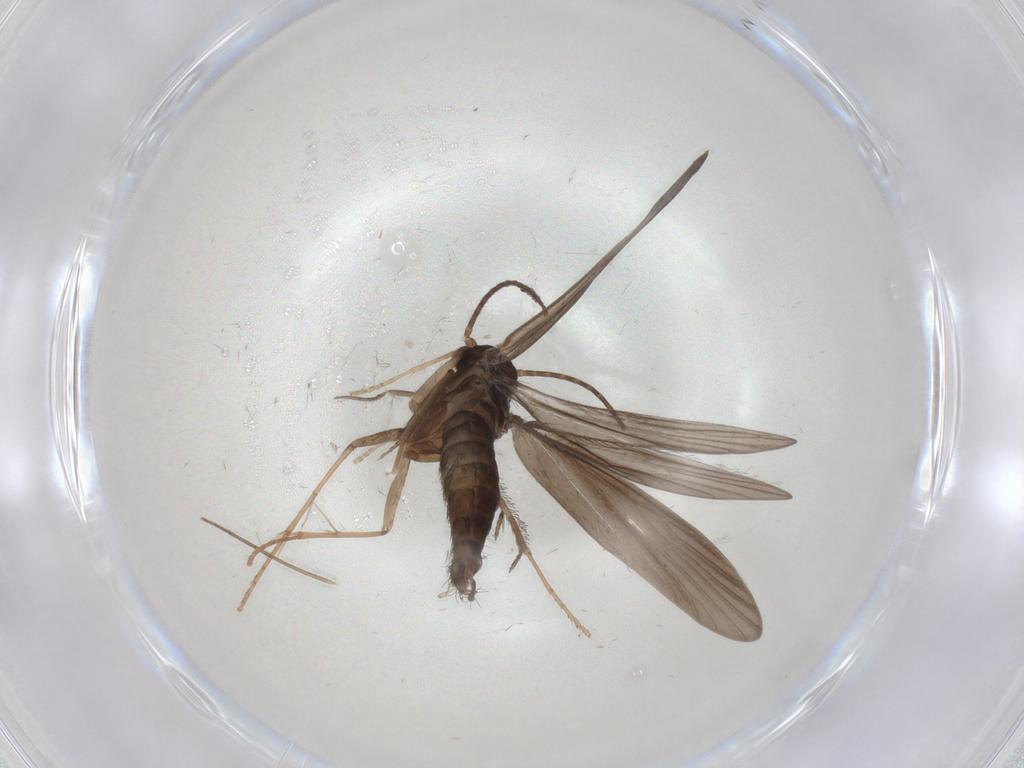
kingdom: Animalia
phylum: Arthropoda
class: Insecta
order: Trichoptera
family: Xiphocentronidae
